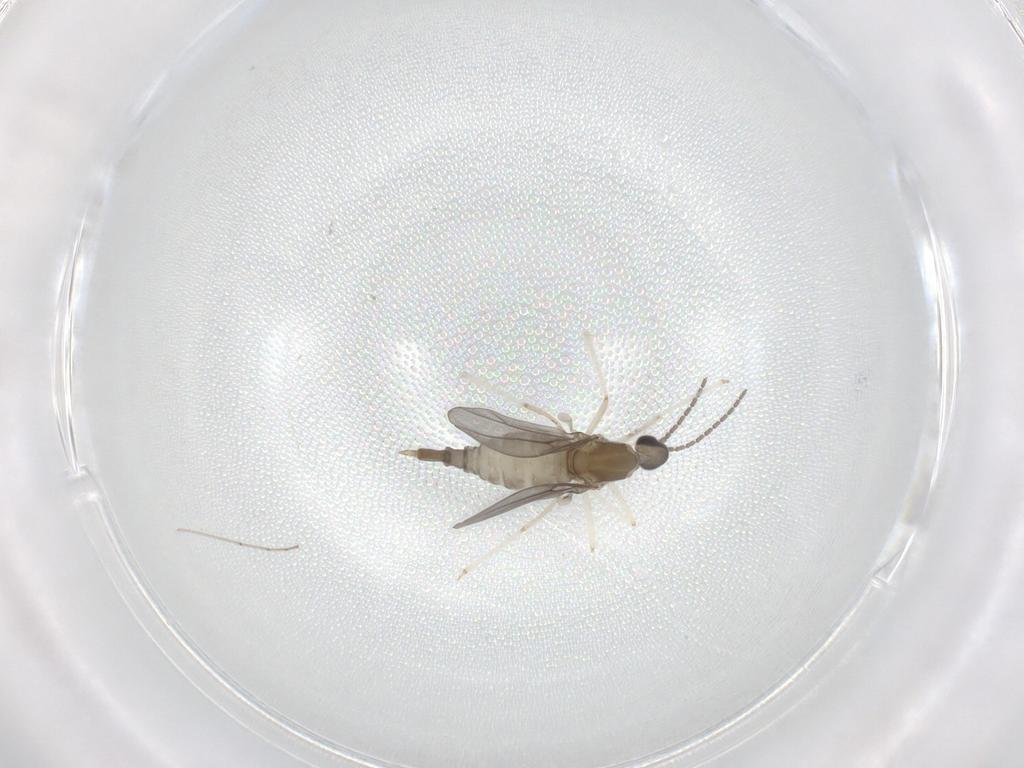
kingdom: Animalia
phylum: Arthropoda
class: Insecta
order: Diptera
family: Cecidomyiidae
